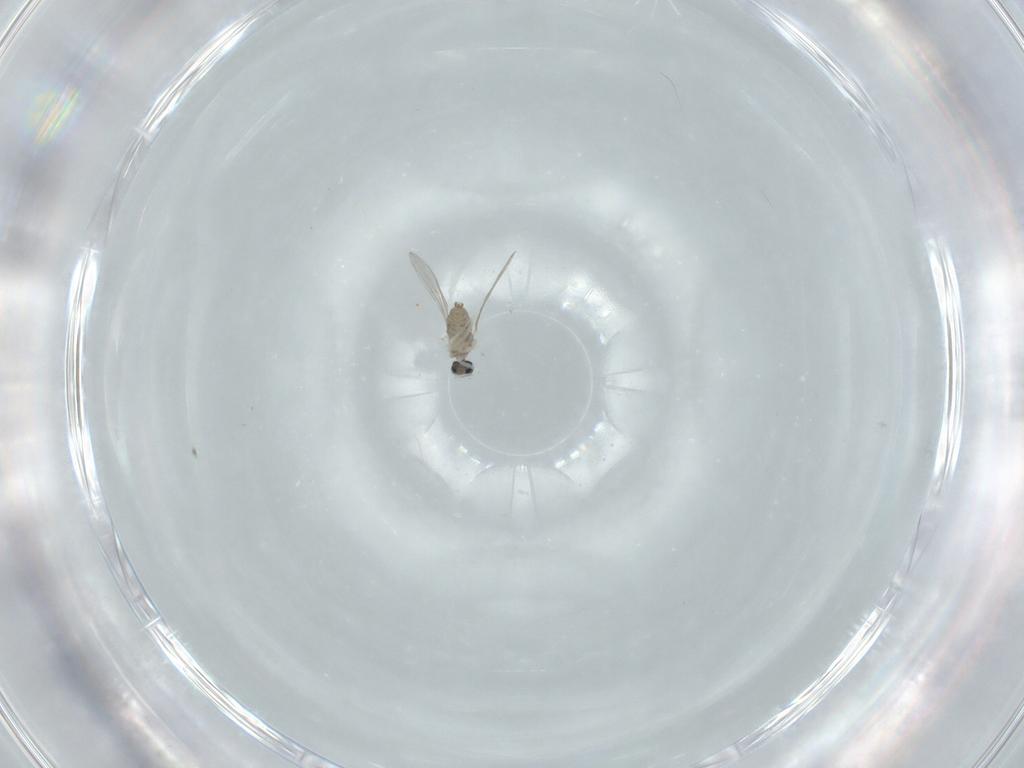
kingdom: Animalia
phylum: Arthropoda
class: Insecta
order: Diptera
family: Cecidomyiidae
